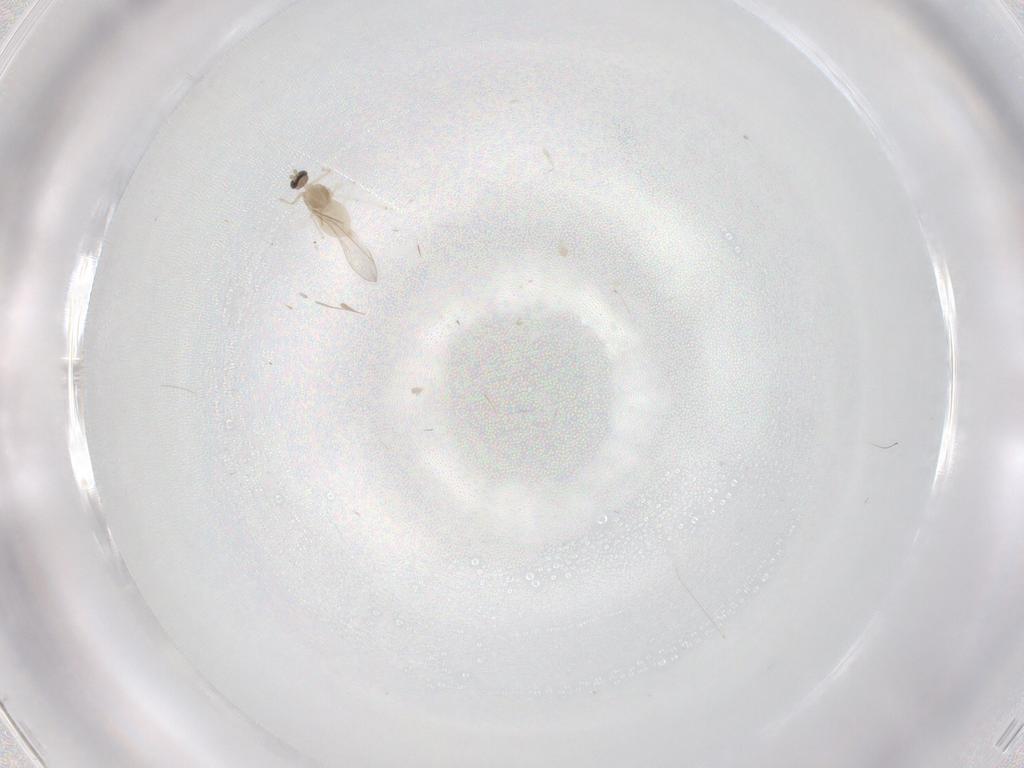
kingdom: Animalia
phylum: Arthropoda
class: Insecta
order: Diptera
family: Cecidomyiidae
